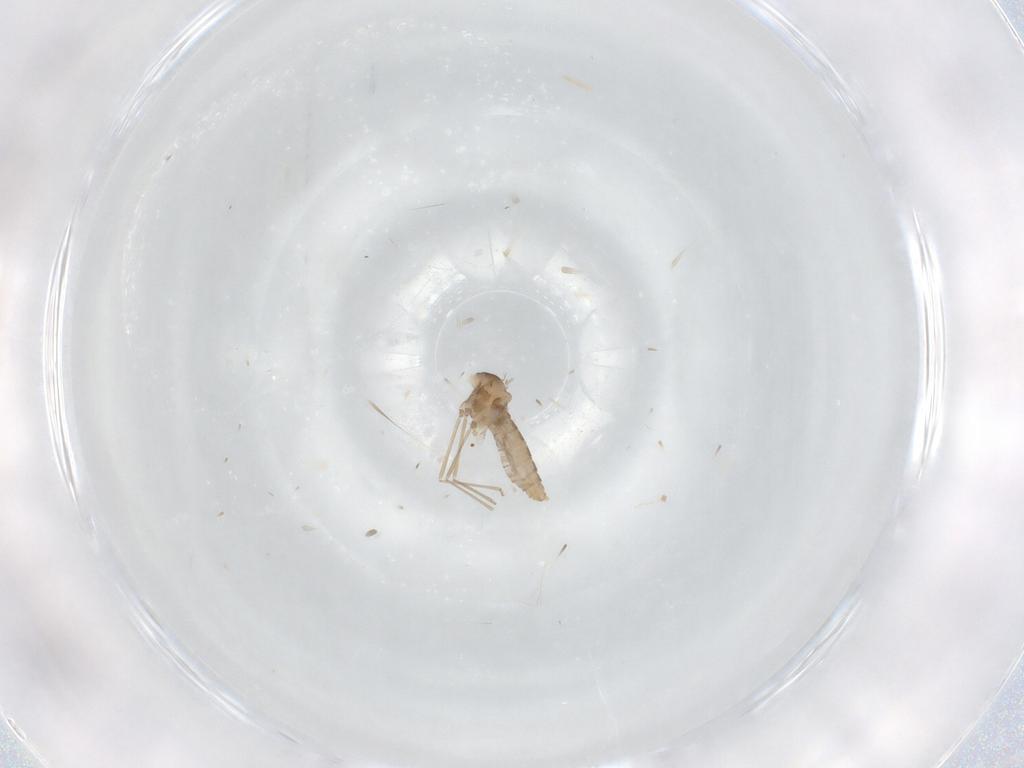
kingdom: Animalia
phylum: Arthropoda
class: Insecta
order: Diptera
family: Cecidomyiidae
